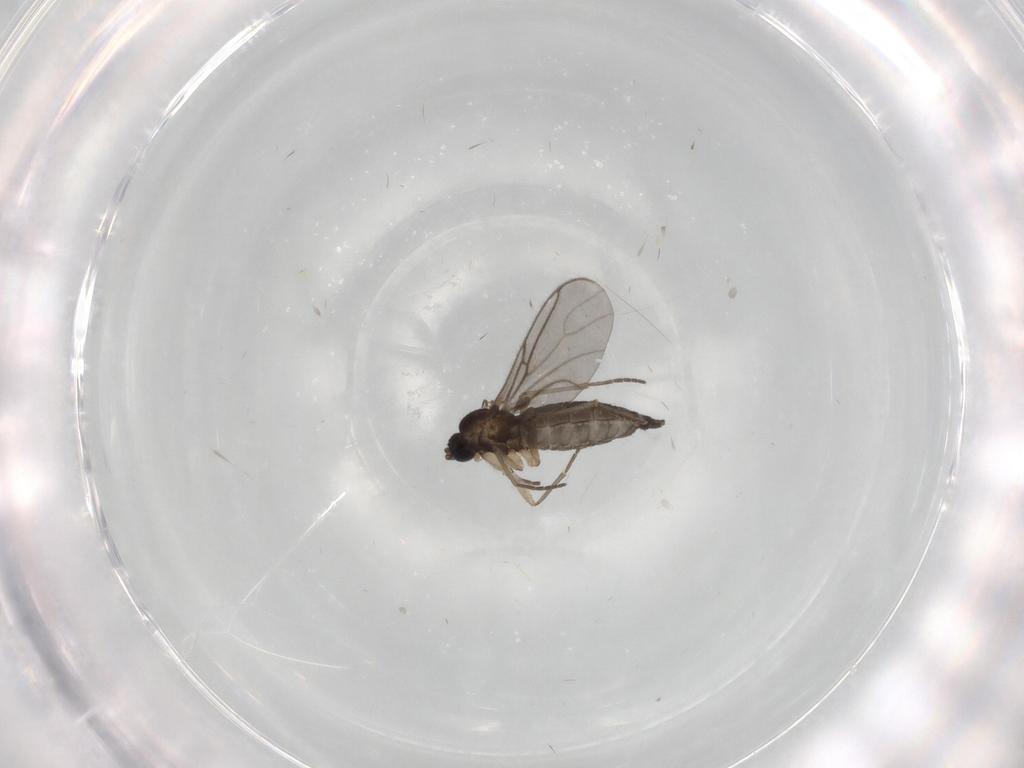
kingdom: Animalia
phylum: Arthropoda
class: Insecta
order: Diptera
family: Sciaridae
